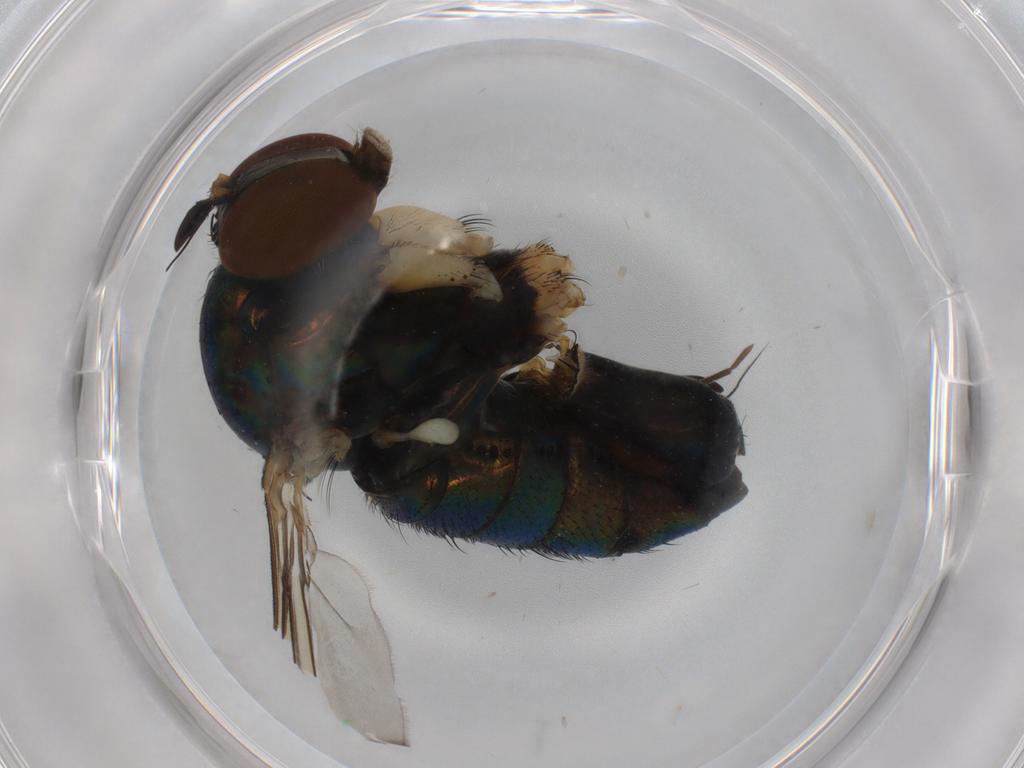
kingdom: Animalia
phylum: Arthropoda
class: Insecta
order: Diptera
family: Dolichopodidae
